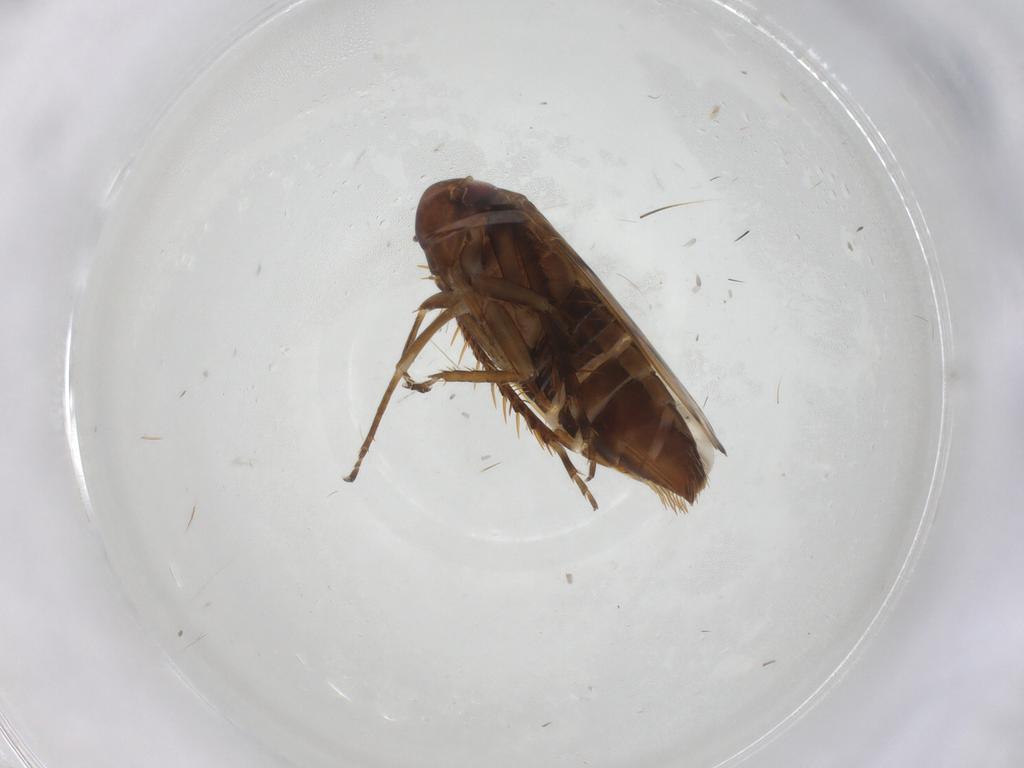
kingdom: Animalia
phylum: Arthropoda
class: Insecta
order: Hemiptera
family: Cicadellidae
